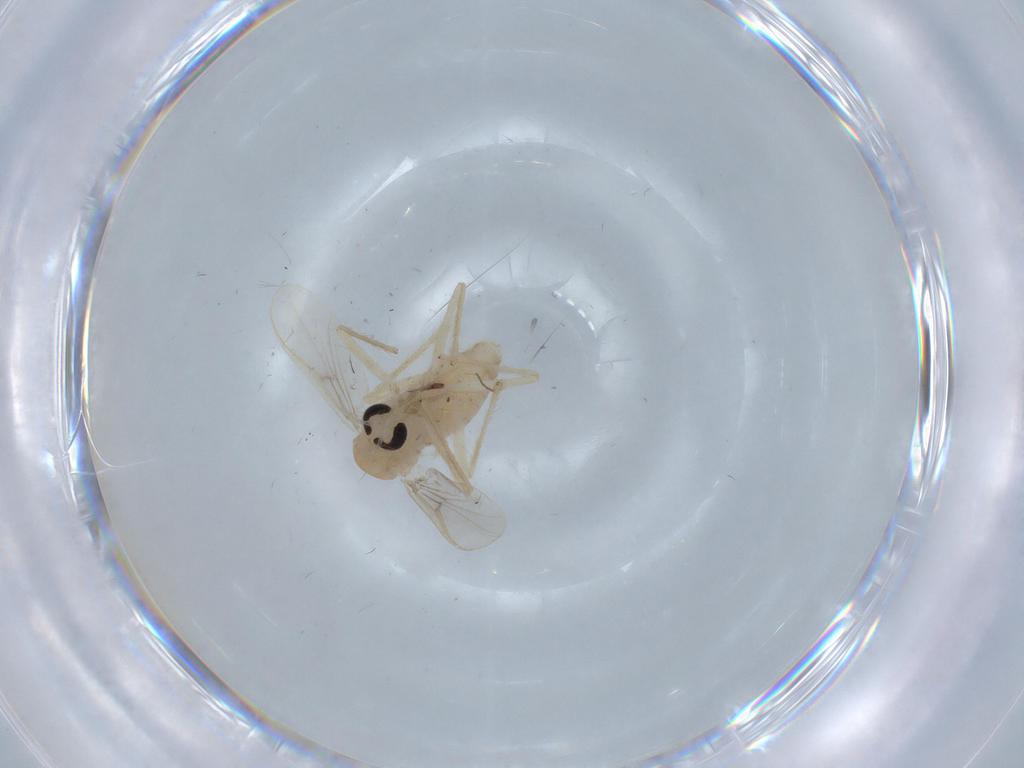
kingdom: Animalia
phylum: Arthropoda
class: Insecta
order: Diptera
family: Chironomidae
